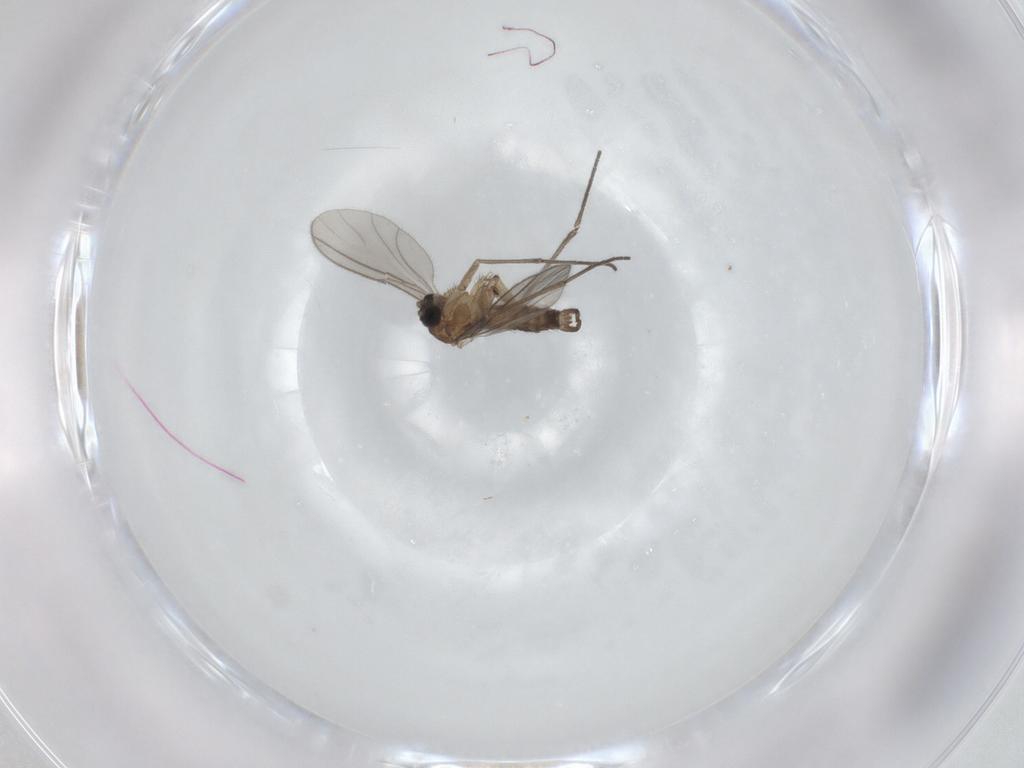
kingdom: Animalia
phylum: Arthropoda
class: Insecta
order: Diptera
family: Sciaridae
